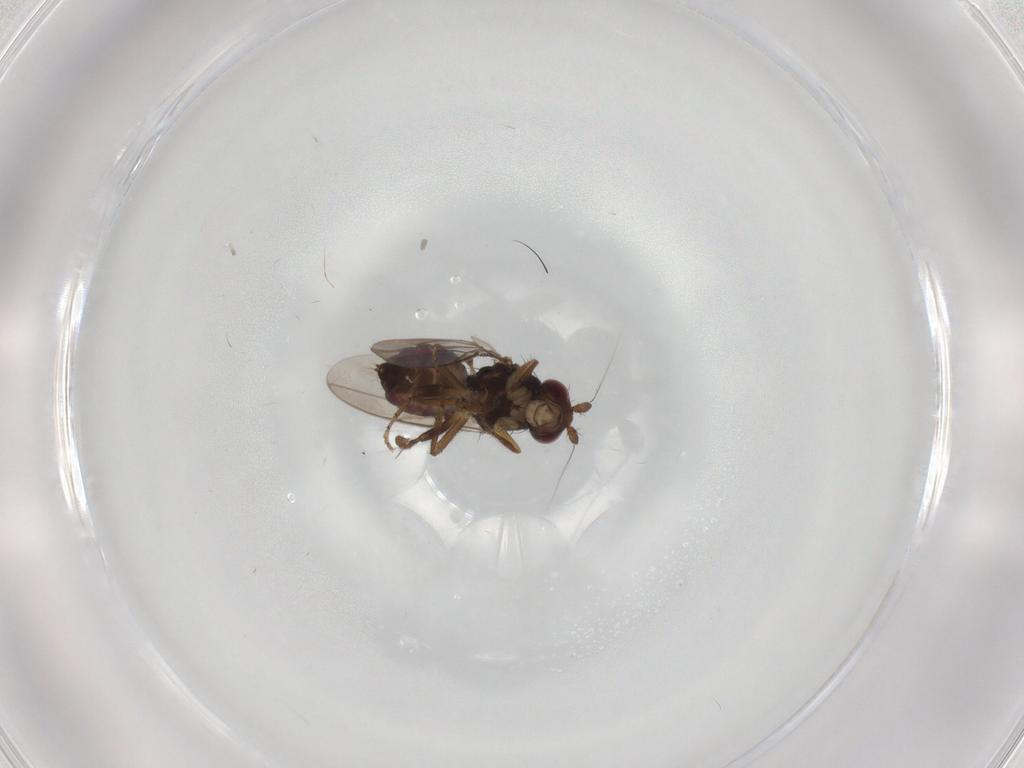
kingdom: Animalia
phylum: Arthropoda
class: Insecta
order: Diptera
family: Sphaeroceridae
